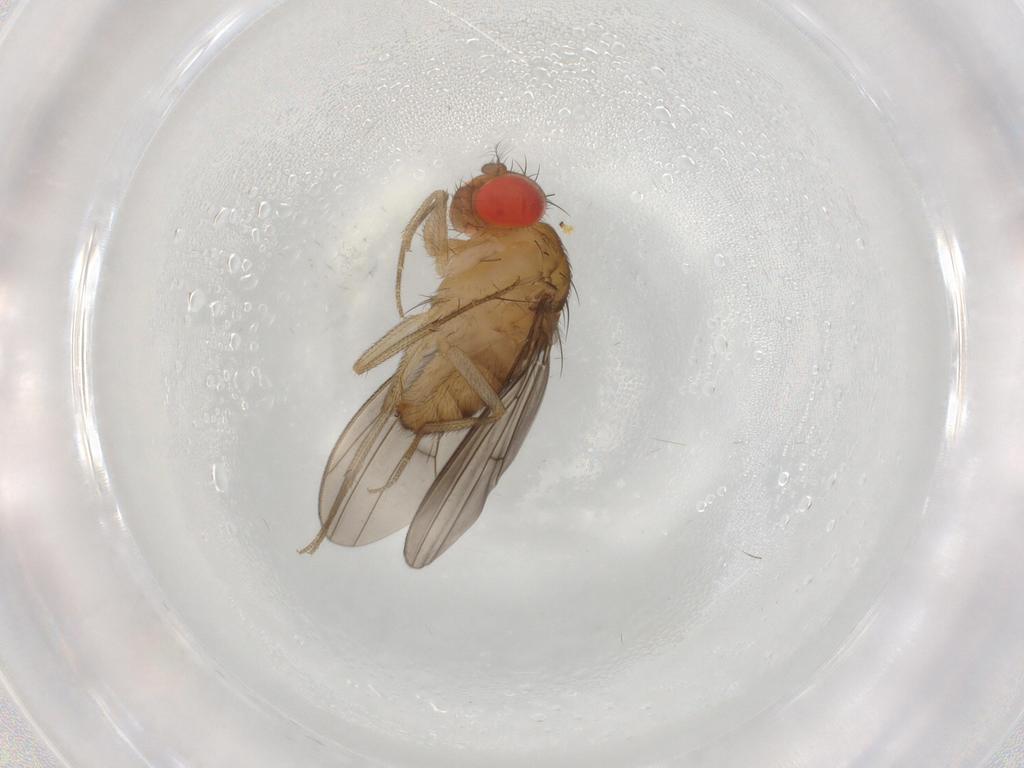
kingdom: Animalia
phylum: Arthropoda
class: Insecta
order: Diptera
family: Drosophilidae
